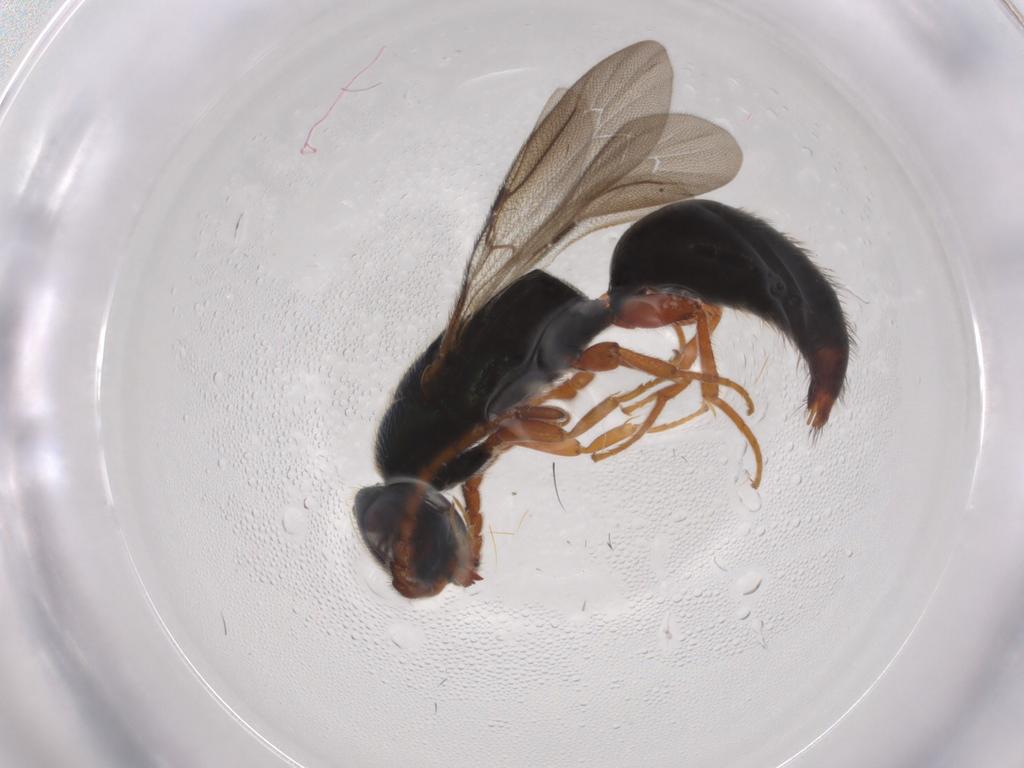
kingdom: Animalia
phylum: Arthropoda
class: Insecta
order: Hymenoptera
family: Bethylidae
